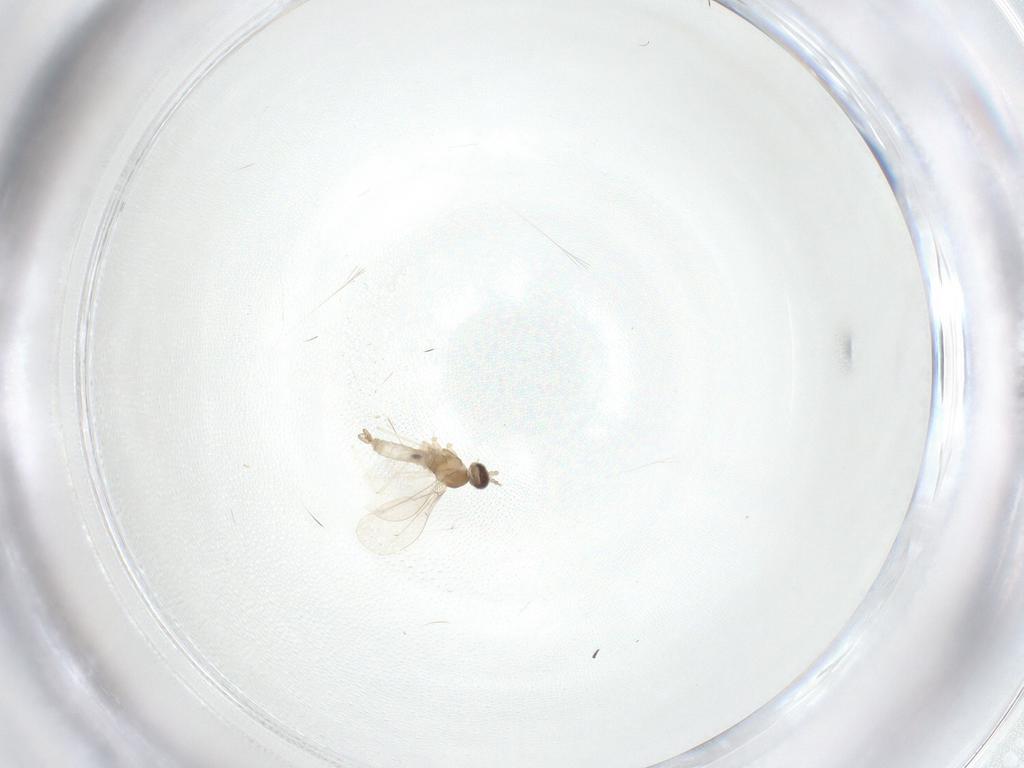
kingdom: Animalia
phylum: Arthropoda
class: Insecta
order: Diptera
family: Cecidomyiidae
